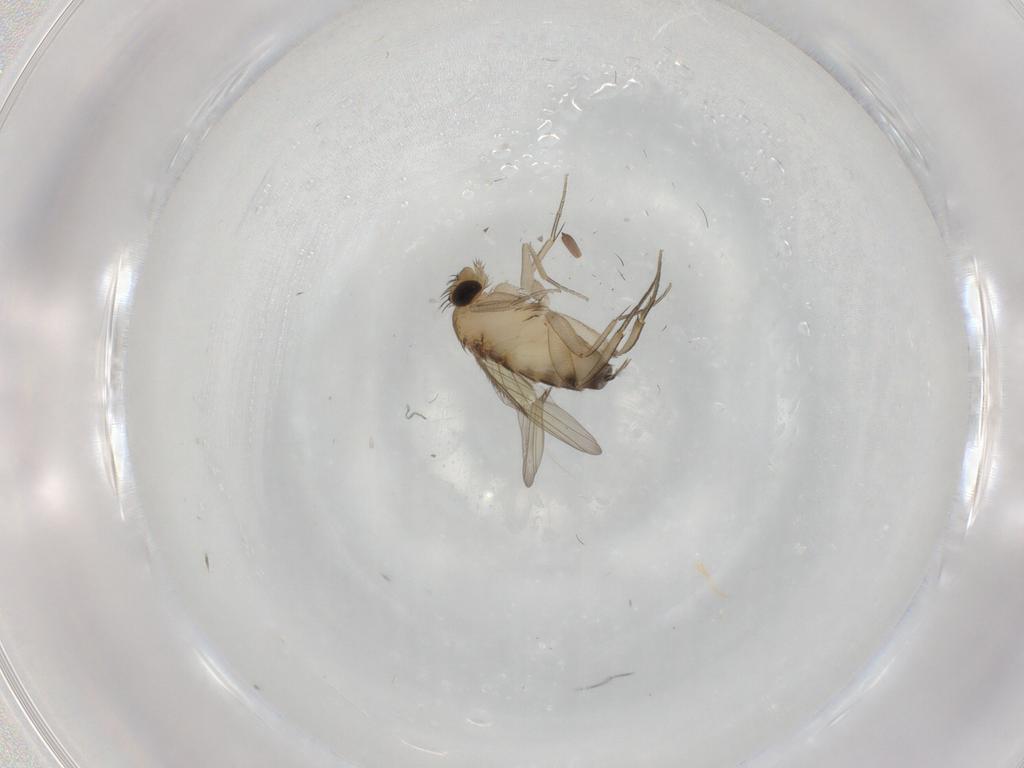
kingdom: Animalia
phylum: Arthropoda
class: Insecta
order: Diptera
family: Phoridae
